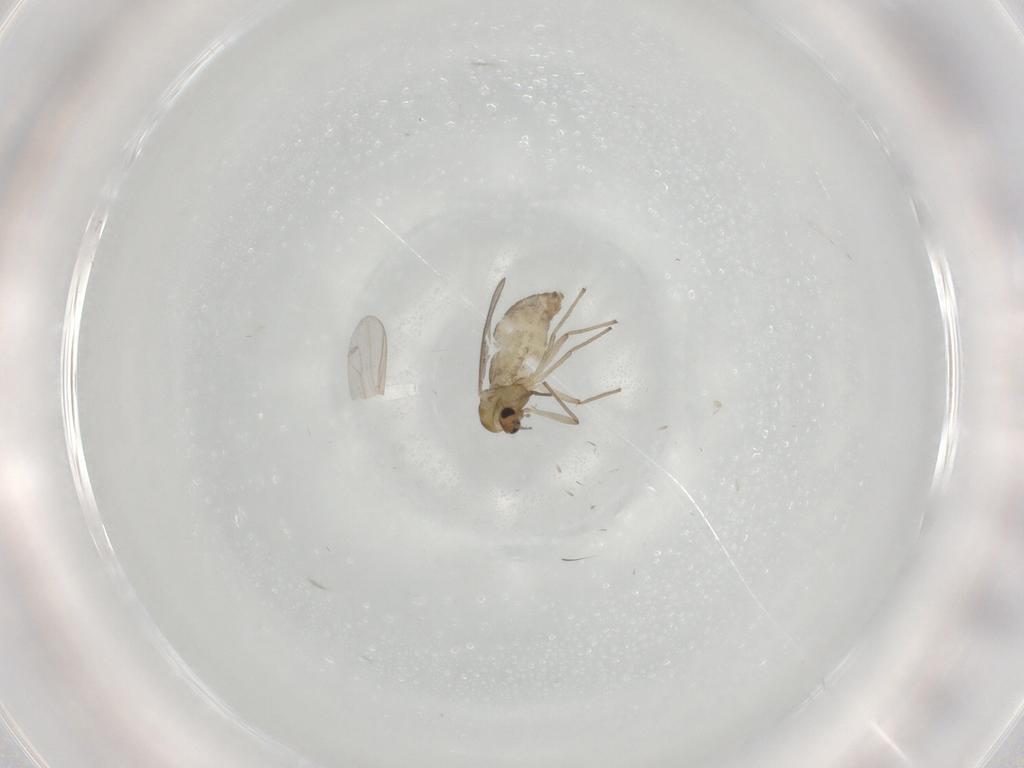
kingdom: Animalia
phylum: Arthropoda
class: Insecta
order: Diptera
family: Chironomidae
